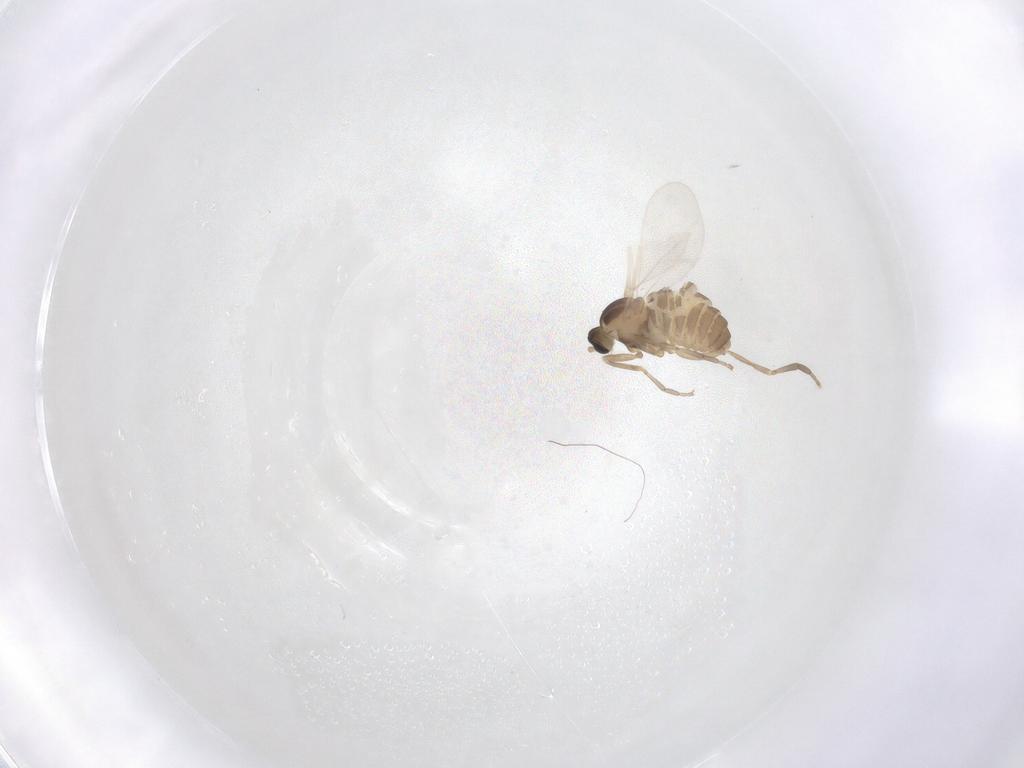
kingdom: Animalia
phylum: Arthropoda
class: Insecta
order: Diptera
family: Cecidomyiidae
